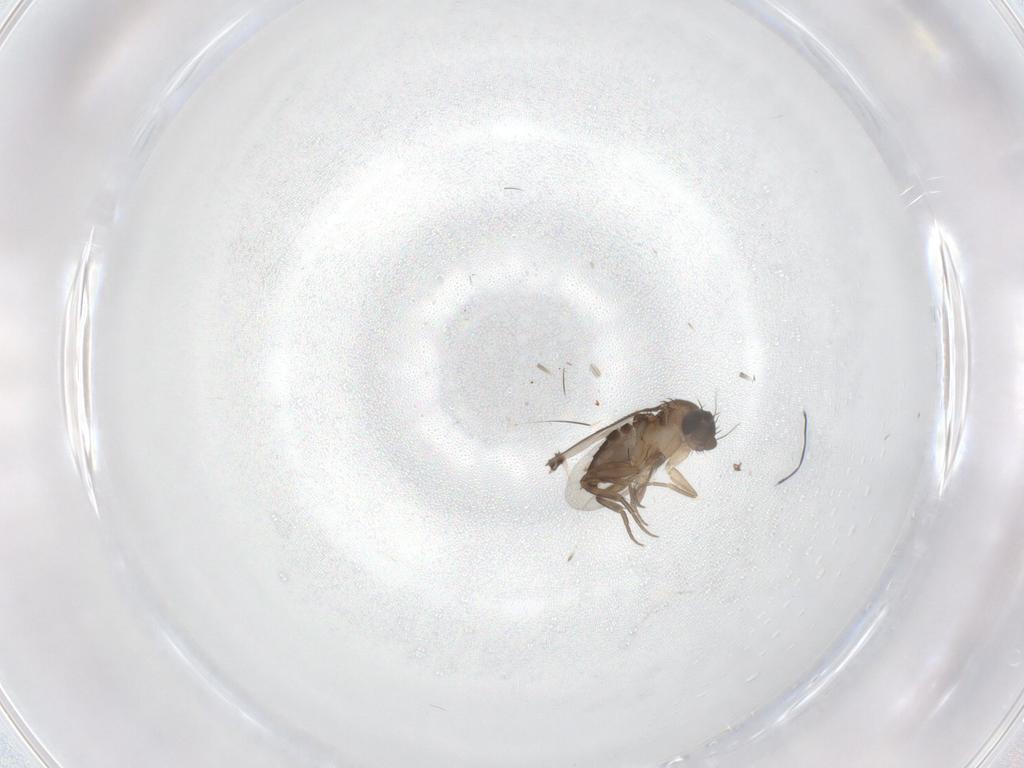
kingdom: Animalia
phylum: Arthropoda
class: Insecta
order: Diptera
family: Phoridae
